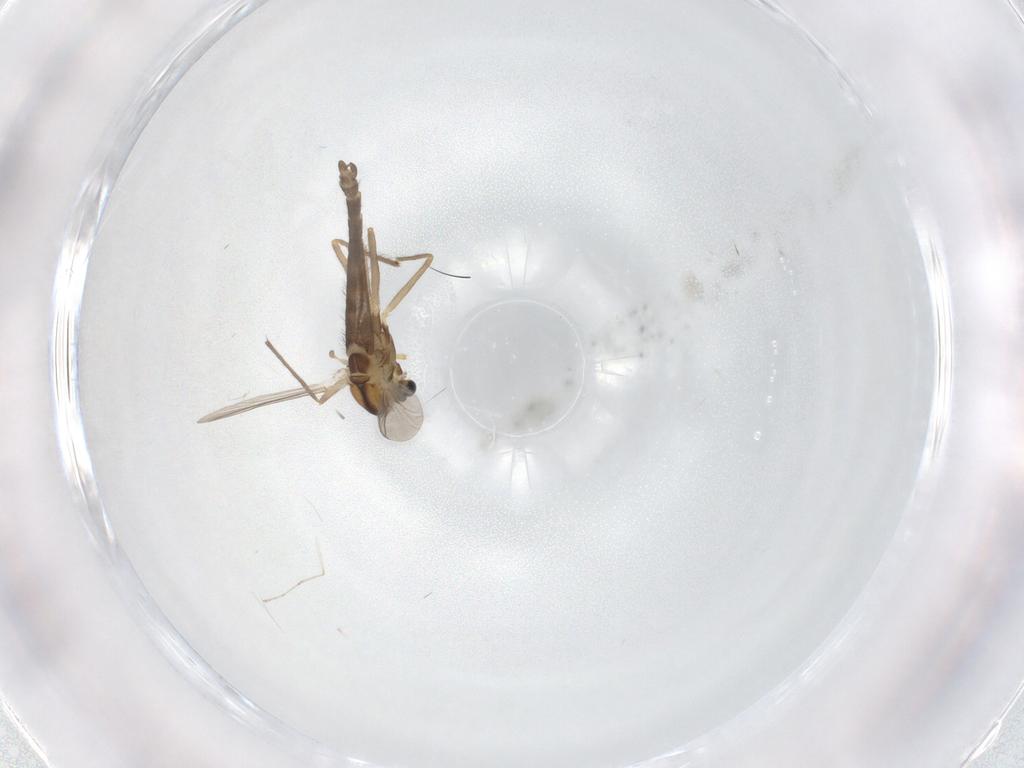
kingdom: Animalia
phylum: Arthropoda
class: Insecta
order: Diptera
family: Chironomidae
